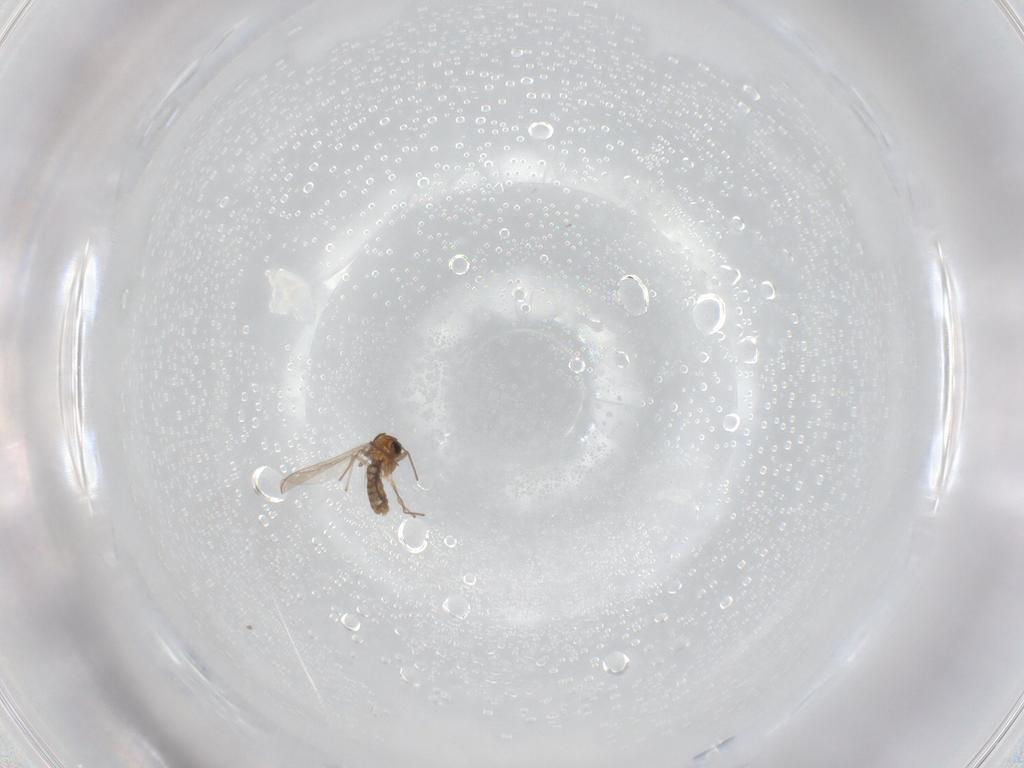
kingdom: Animalia
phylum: Arthropoda
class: Insecta
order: Diptera
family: Chironomidae
